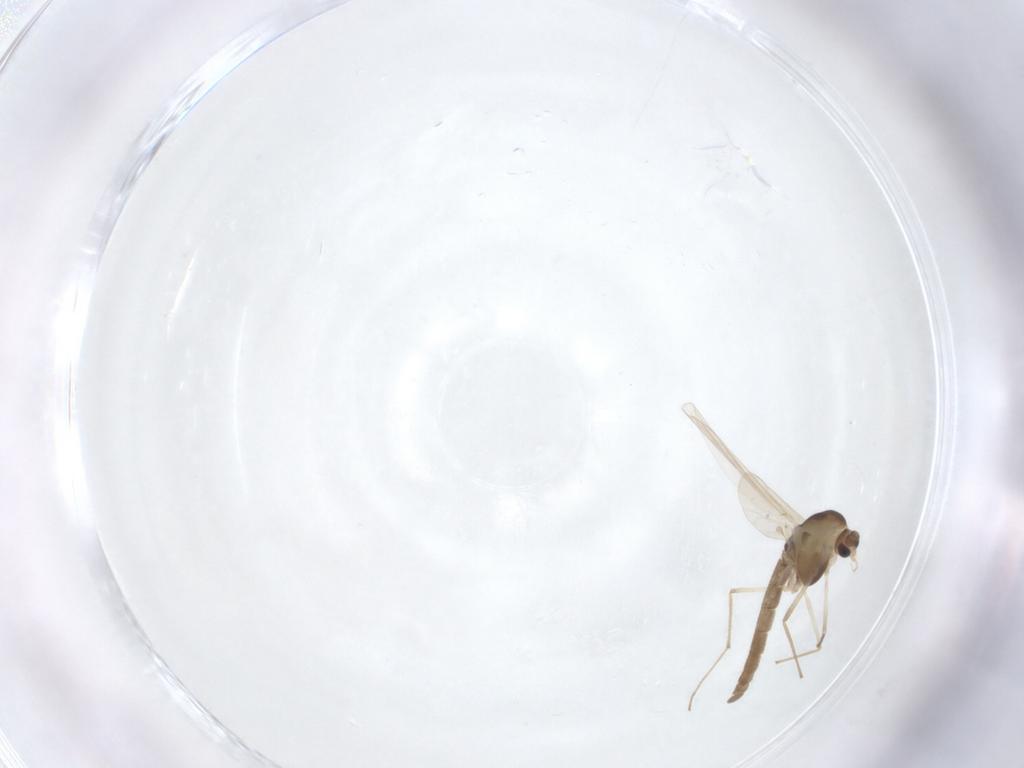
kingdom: Animalia
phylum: Arthropoda
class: Insecta
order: Diptera
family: Chironomidae
